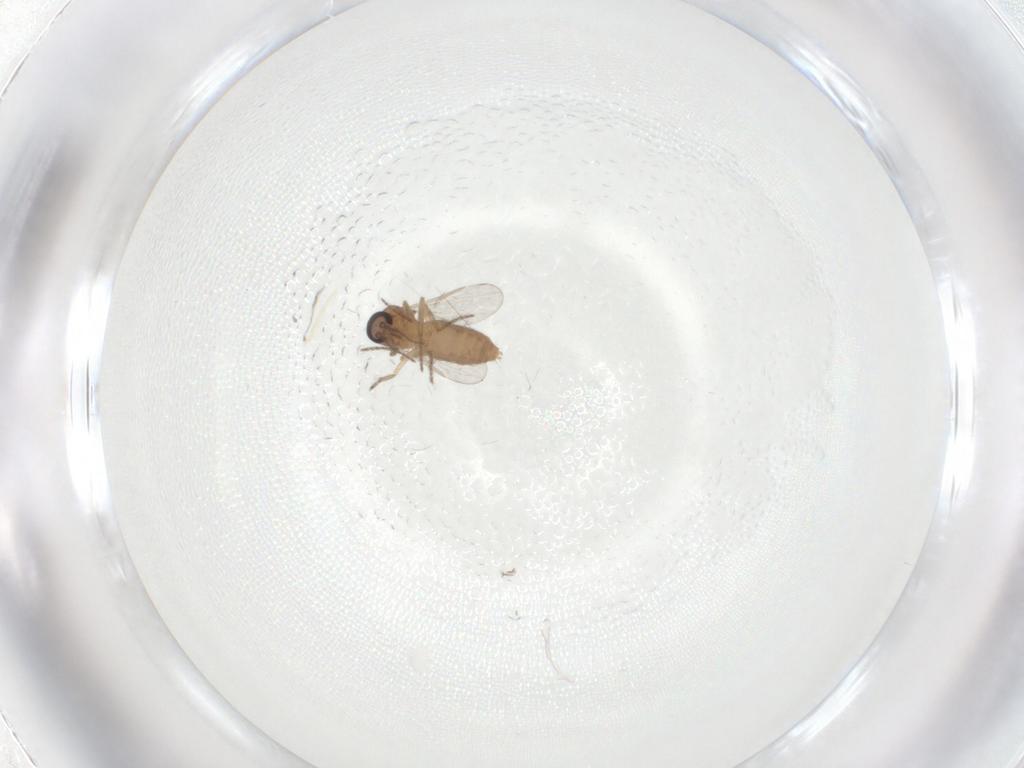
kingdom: Animalia
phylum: Arthropoda
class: Insecta
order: Diptera
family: Ceratopogonidae
